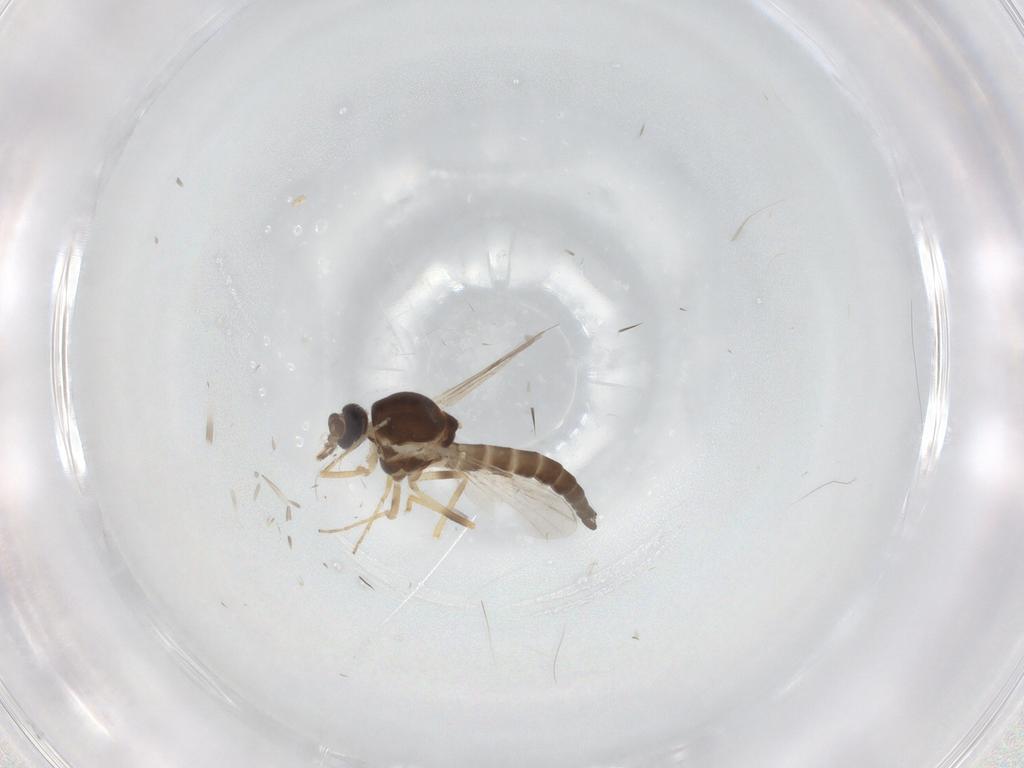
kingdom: Animalia
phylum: Arthropoda
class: Insecta
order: Diptera
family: Ceratopogonidae
